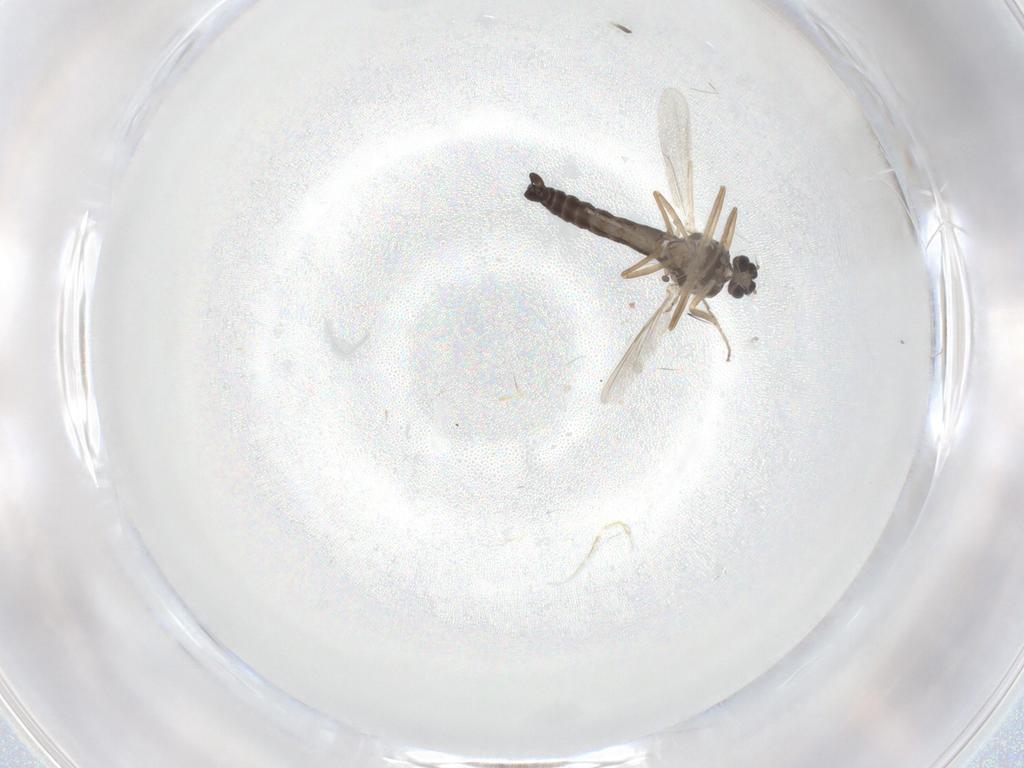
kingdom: Animalia
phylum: Arthropoda
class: Insecta
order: Diptera
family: Ceratopogonidae
